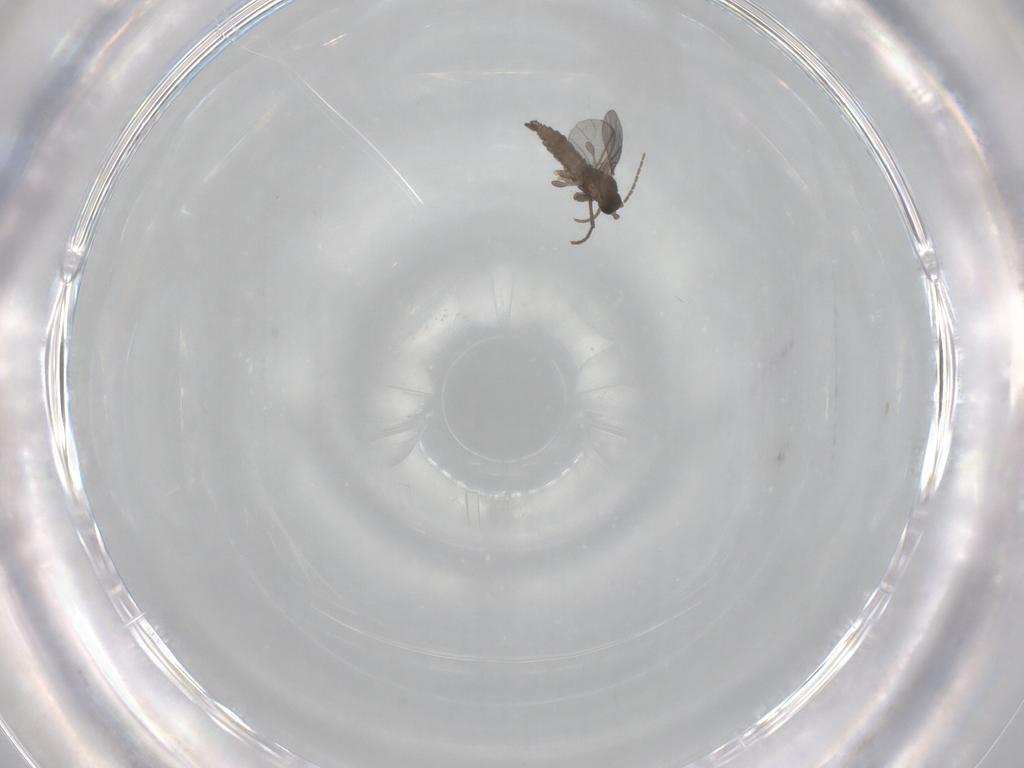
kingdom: Animalia
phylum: Arthropoda
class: Insecta
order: Diptera
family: Sciaridae
